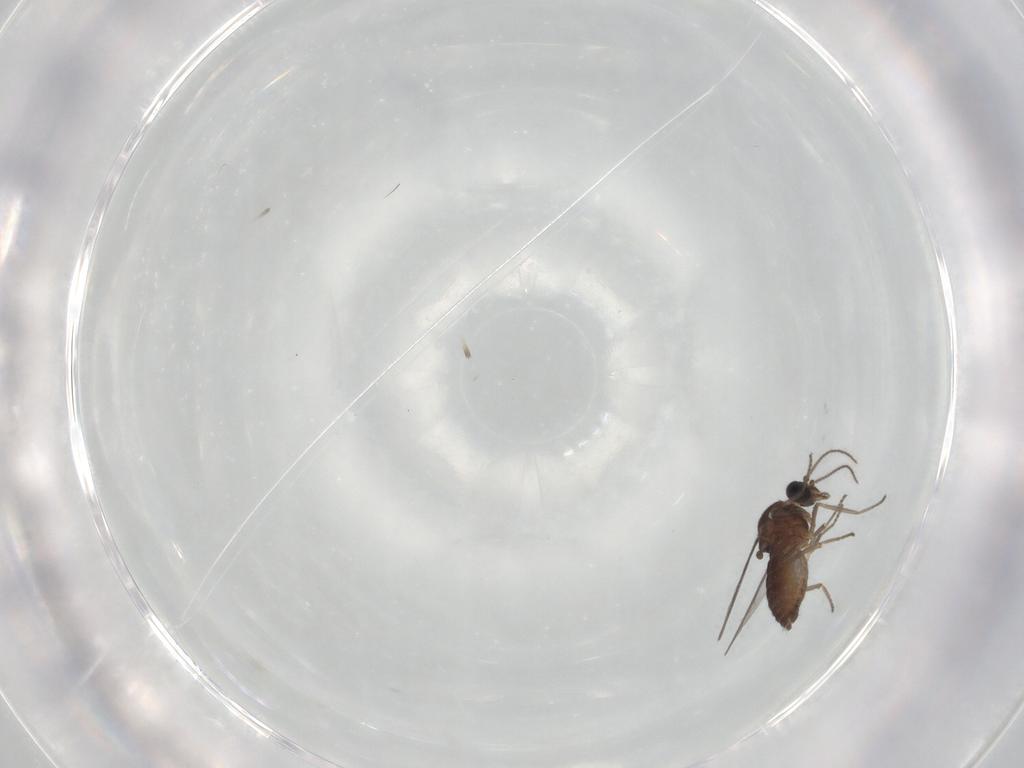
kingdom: Animalia
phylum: Arthropoda
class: Insecta
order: Diptera
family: Ceratopogonidae
